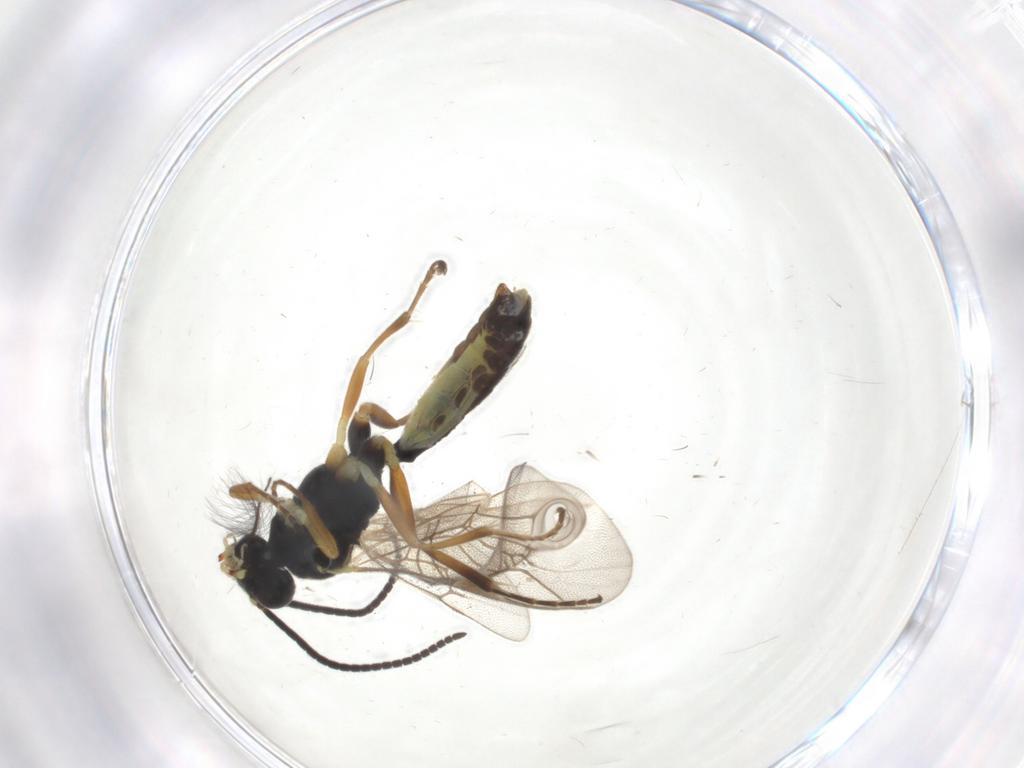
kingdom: Animalia
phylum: Arthropoda
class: Insecta
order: Hymenoptera
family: Ichneumonidae
